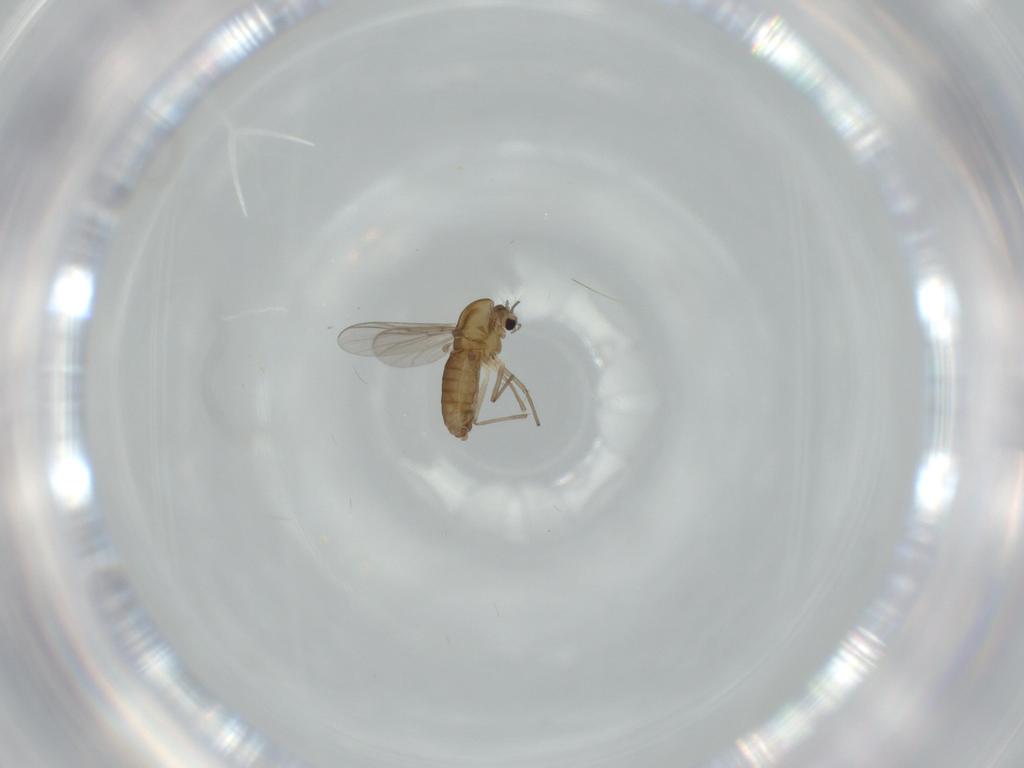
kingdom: Animalia
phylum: Arthropoda
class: Insecta
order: Diptera
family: Chironomidae
